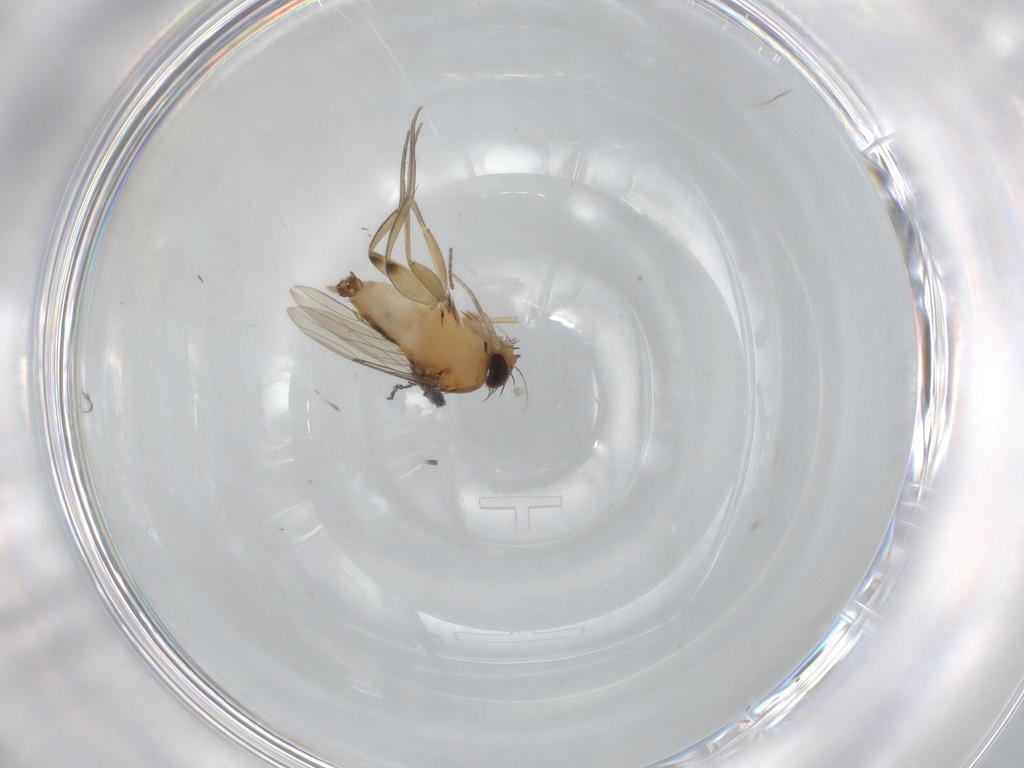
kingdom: Animalia
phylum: Arthropoda
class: Insecta
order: Diptera
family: Phoridae
